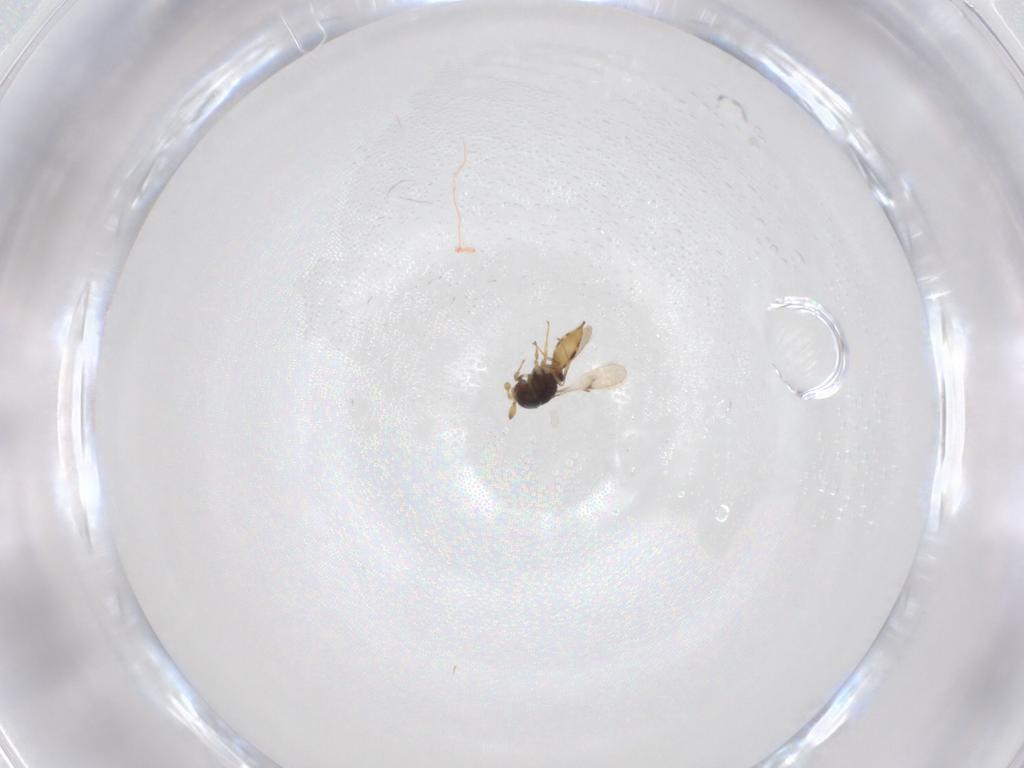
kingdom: Animalia
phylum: Arthropoda
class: Insecta
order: Hymenoptera
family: Scelionidae
